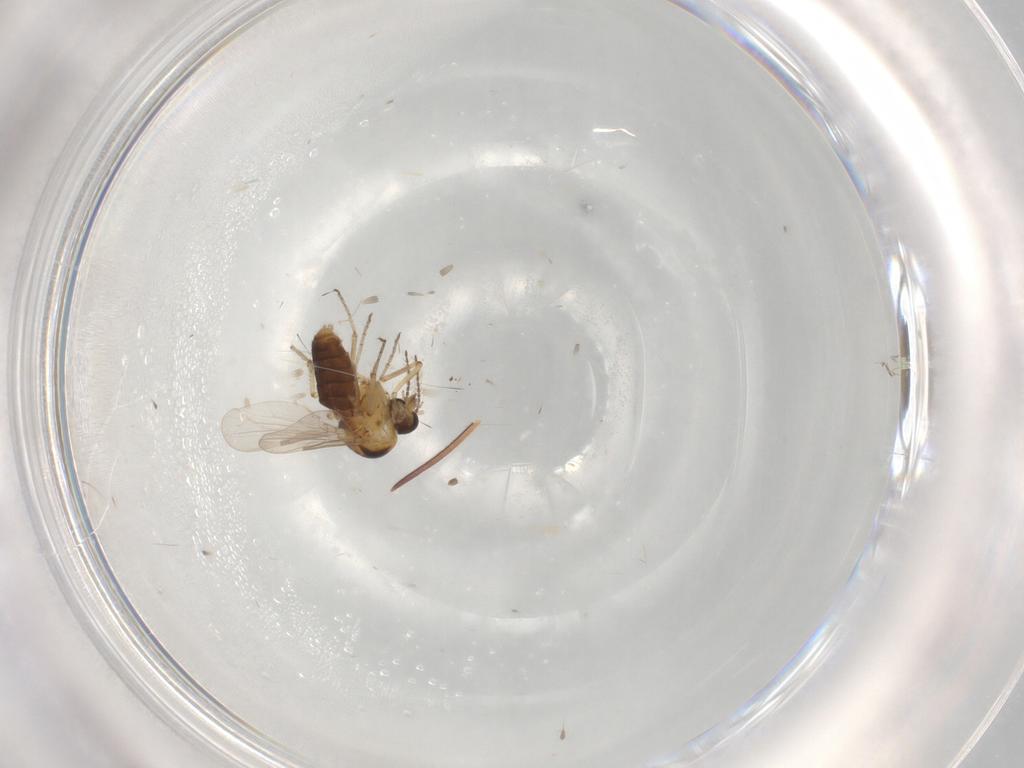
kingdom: Animalia
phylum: Arthropoda
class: Insecta
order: Diptera
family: Ceratopogonidae
